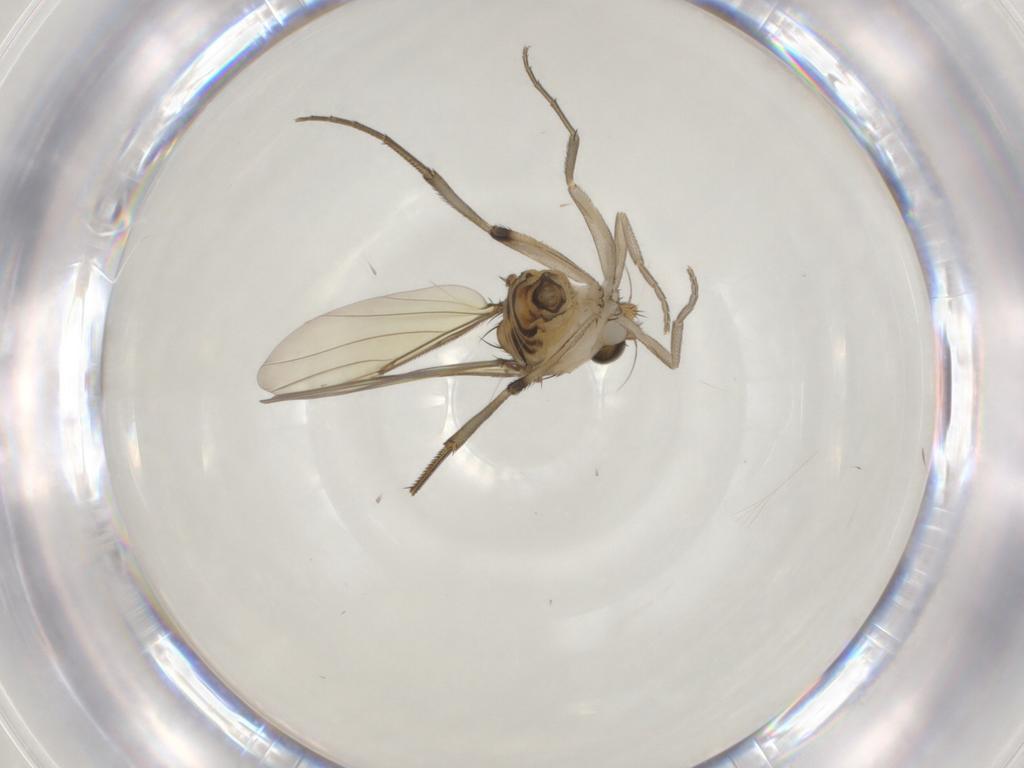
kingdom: Animalia
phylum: Arthropoda
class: Insecta
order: Diptera
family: Phoridae
